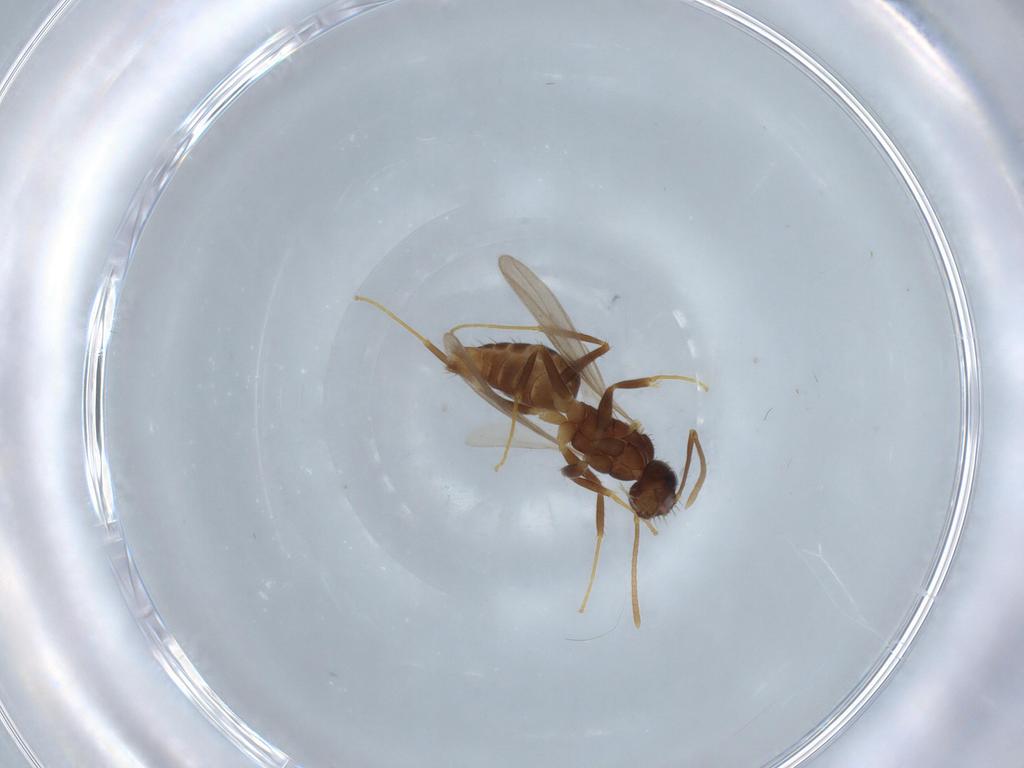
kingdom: Animalia
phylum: Arthropoda
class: Insecta
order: Hymenoptera
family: Formicidae
